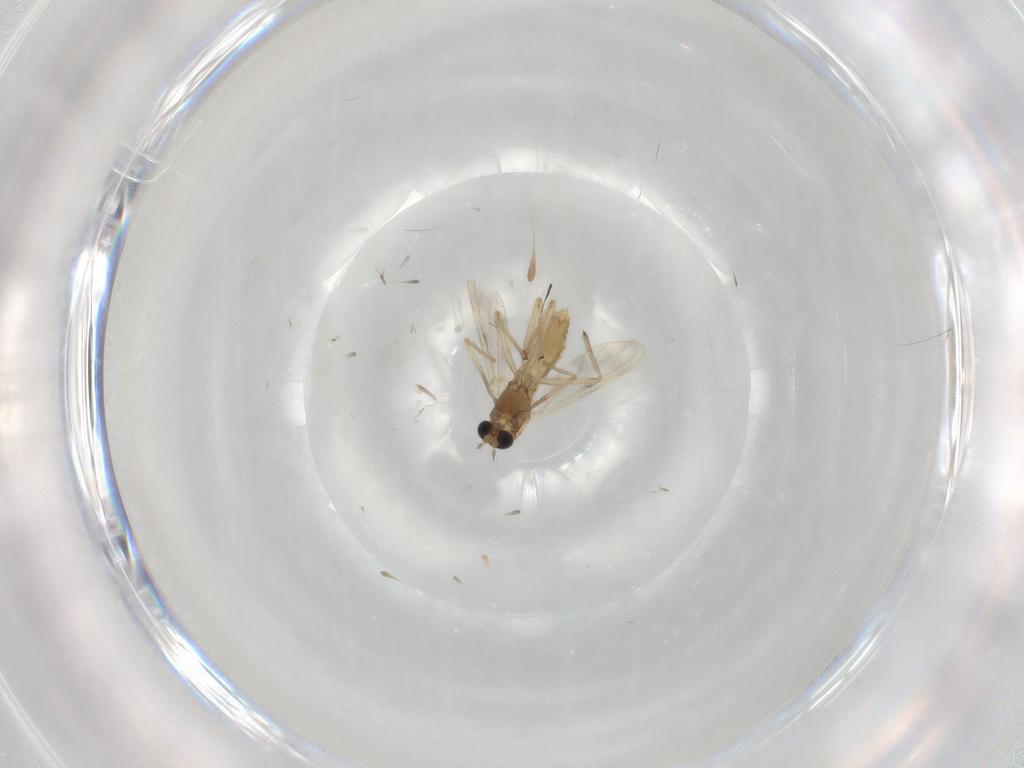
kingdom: Animalia
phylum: Arthropoda
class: Insecta
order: Diptera
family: Chironomidae
